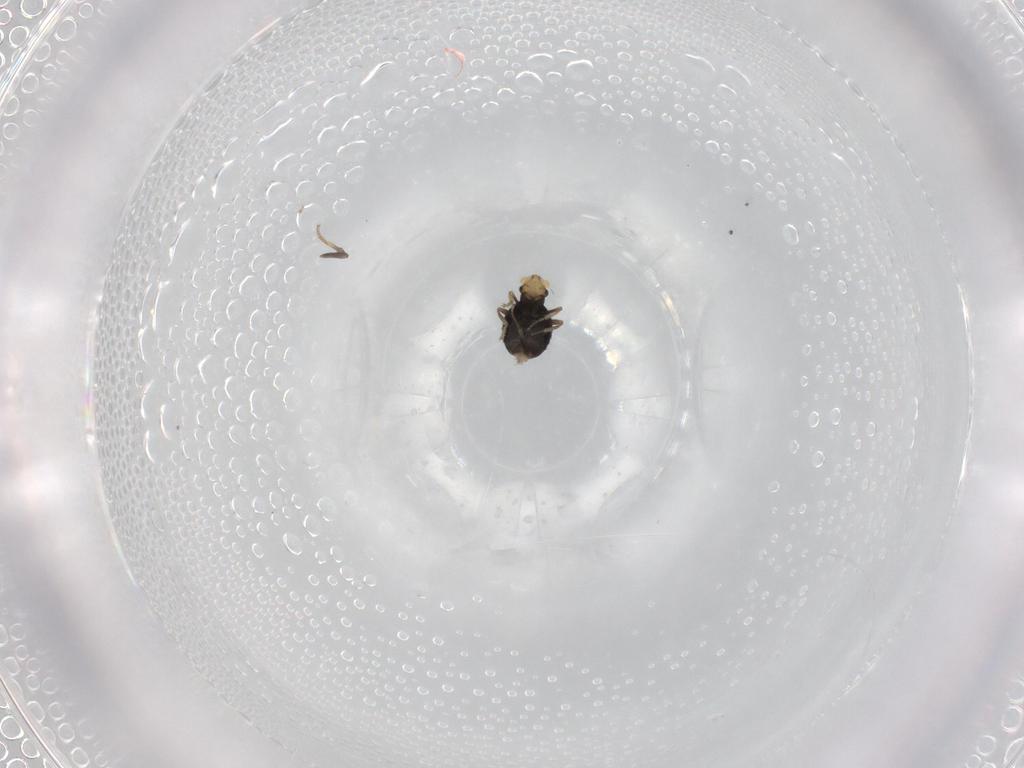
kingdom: Animalia
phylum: Arthropoda
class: Insecta
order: Diptera
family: Phoridae
